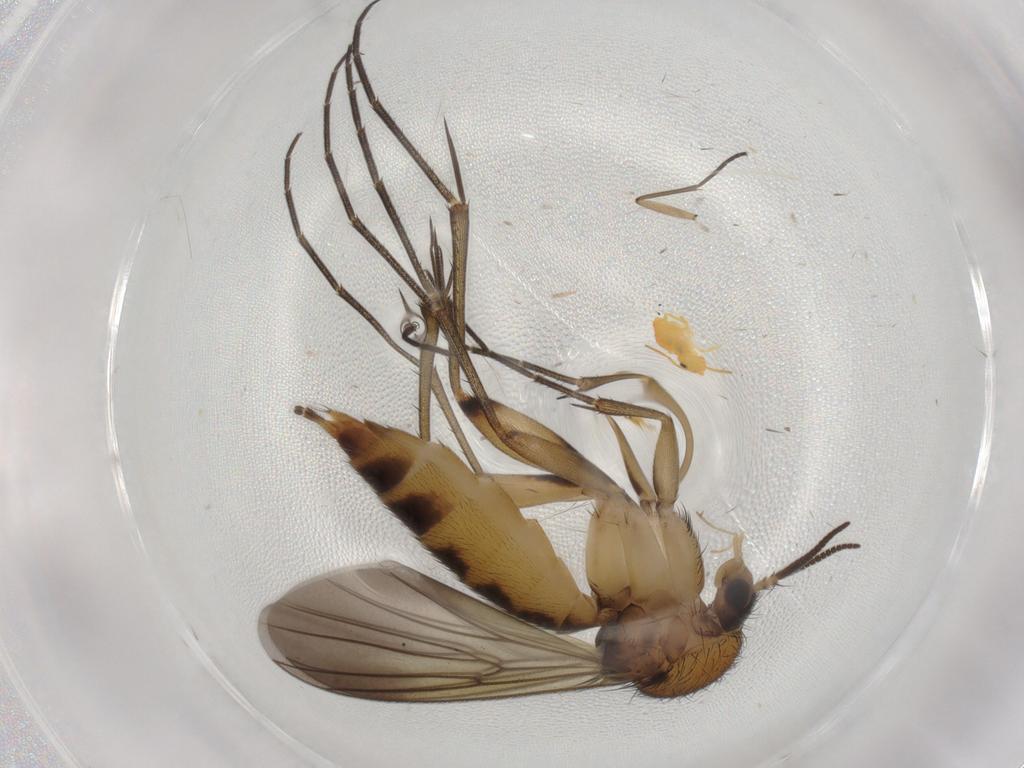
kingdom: Animalia
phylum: Arthropoda
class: Insecta
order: Diptera
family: Mycetophilidae
